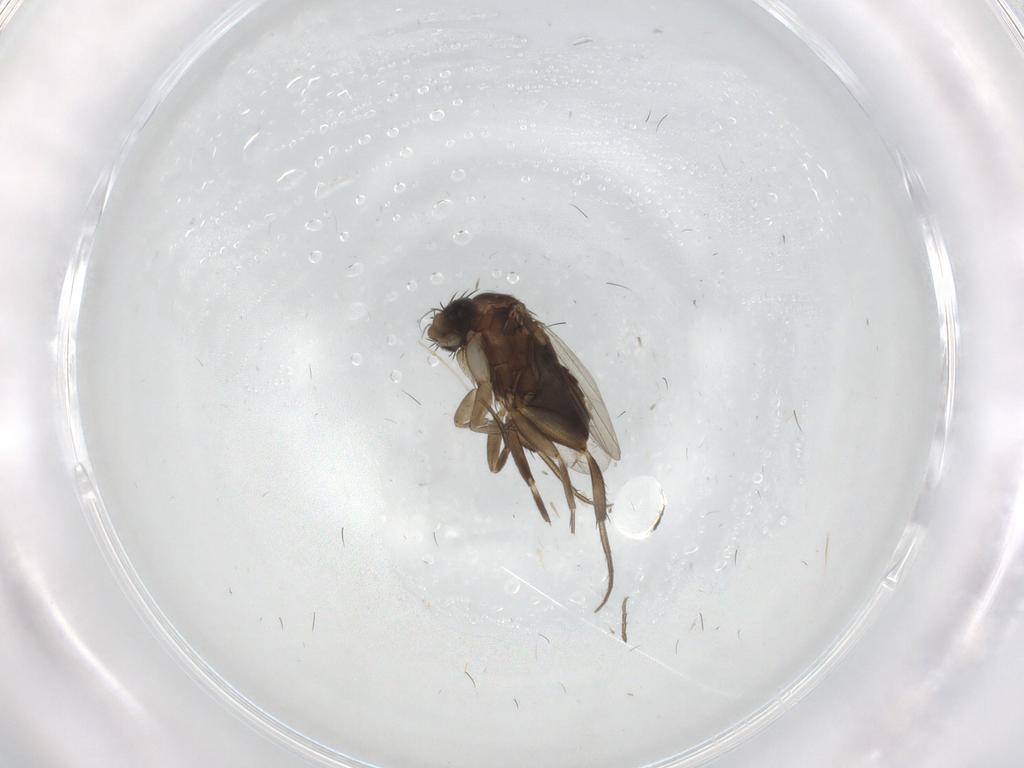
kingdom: Animalia
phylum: Arthropoda
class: Insecta
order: Diptera
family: Phoridae
